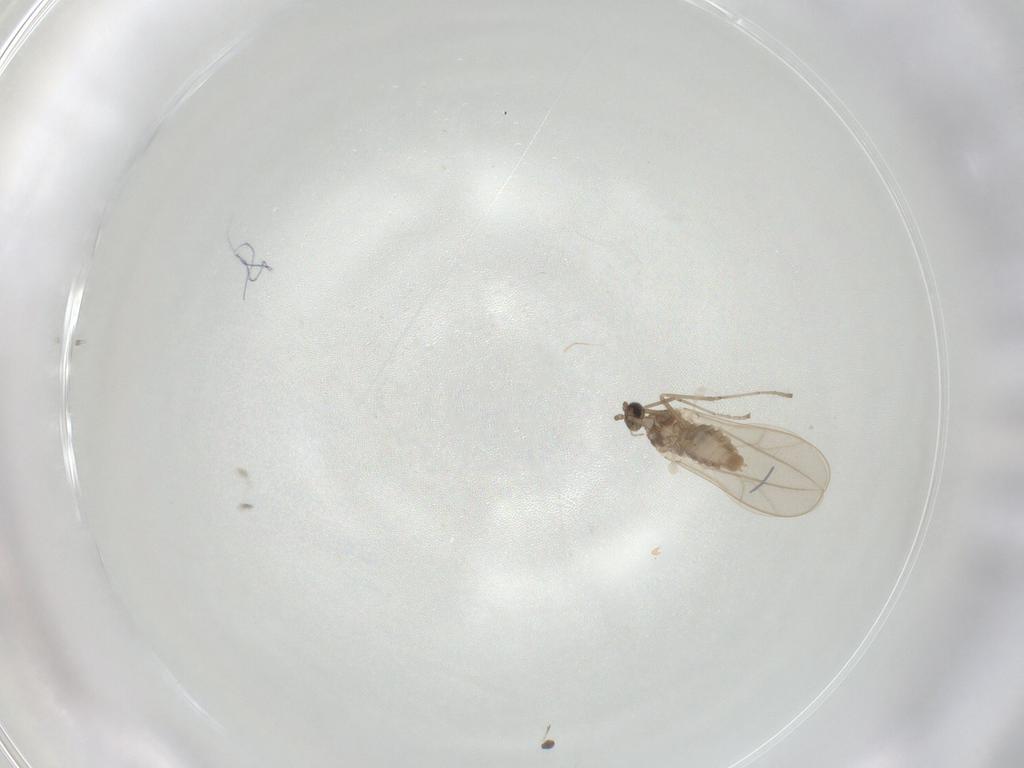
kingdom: Animalia
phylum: Arthropoda
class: Insecta
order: Diptera
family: Cecidomyiidae
